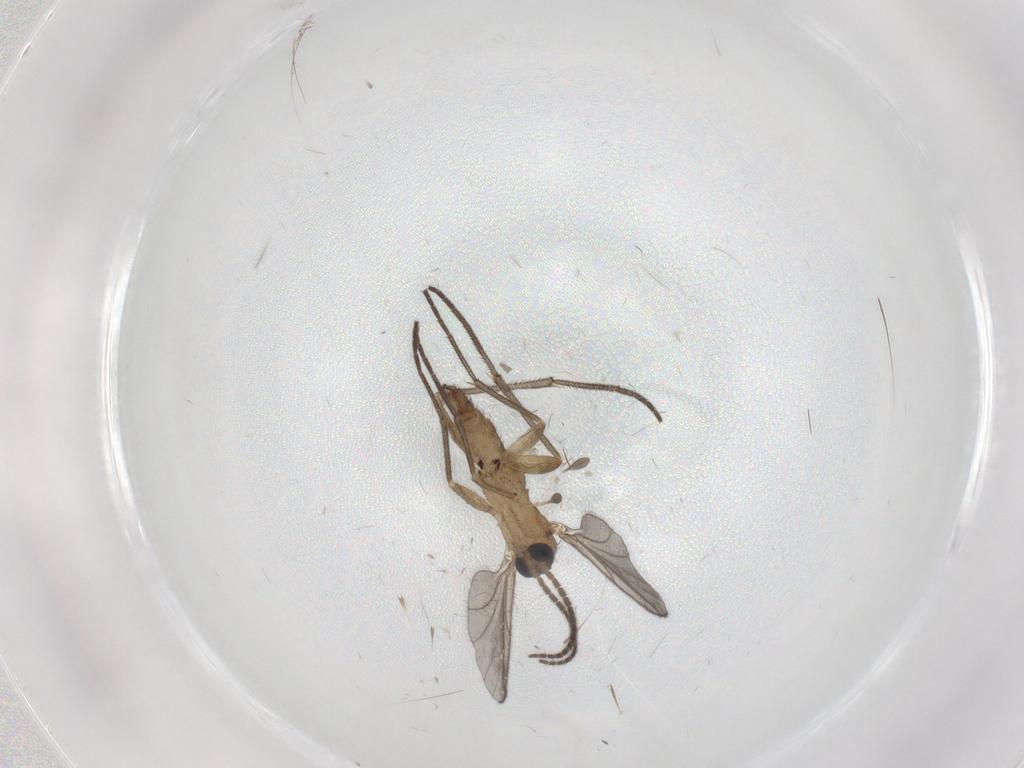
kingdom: Animalia
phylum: Arthropoda
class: Insecta
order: Diptera
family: Sciaridae
